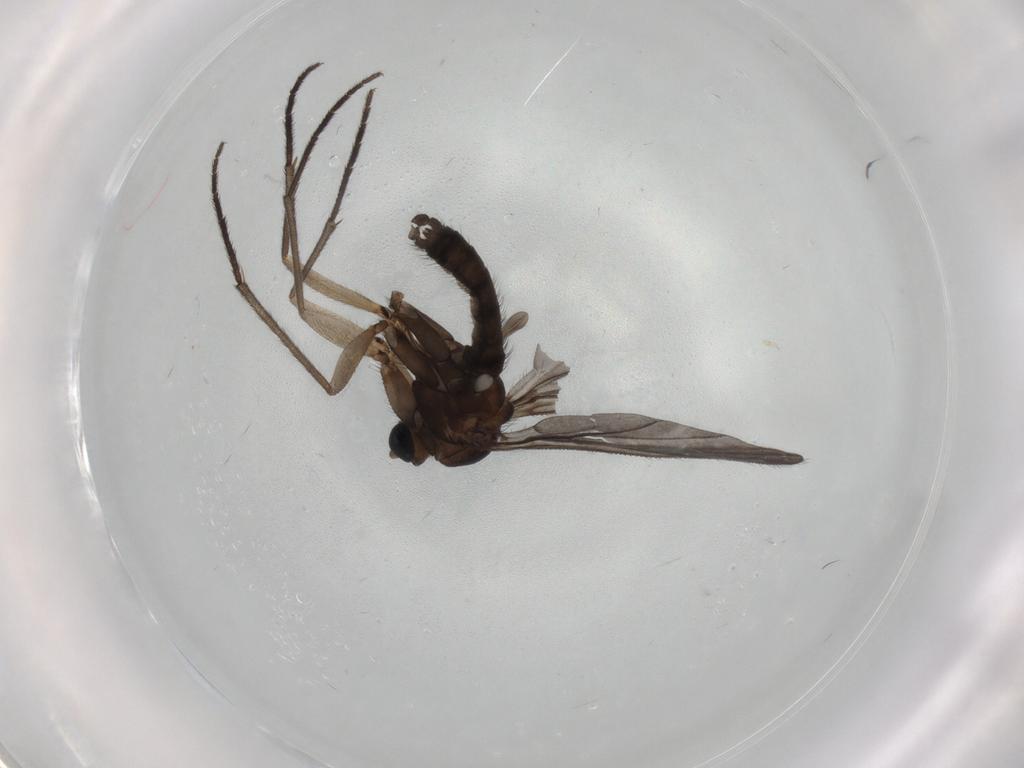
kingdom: Animalia
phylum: Arthropoda
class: Insecta
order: Diptera
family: Sciaridae
